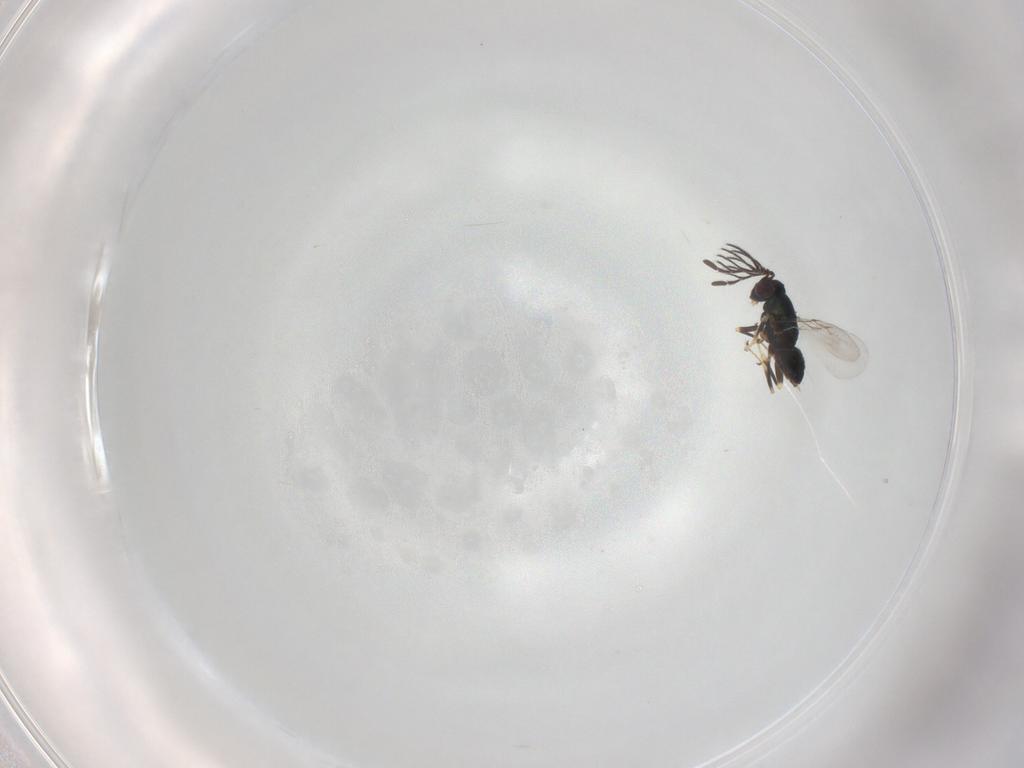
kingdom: Animalia
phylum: Arthropoda
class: Insecta
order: Hymenoptera
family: Encyrtidae
